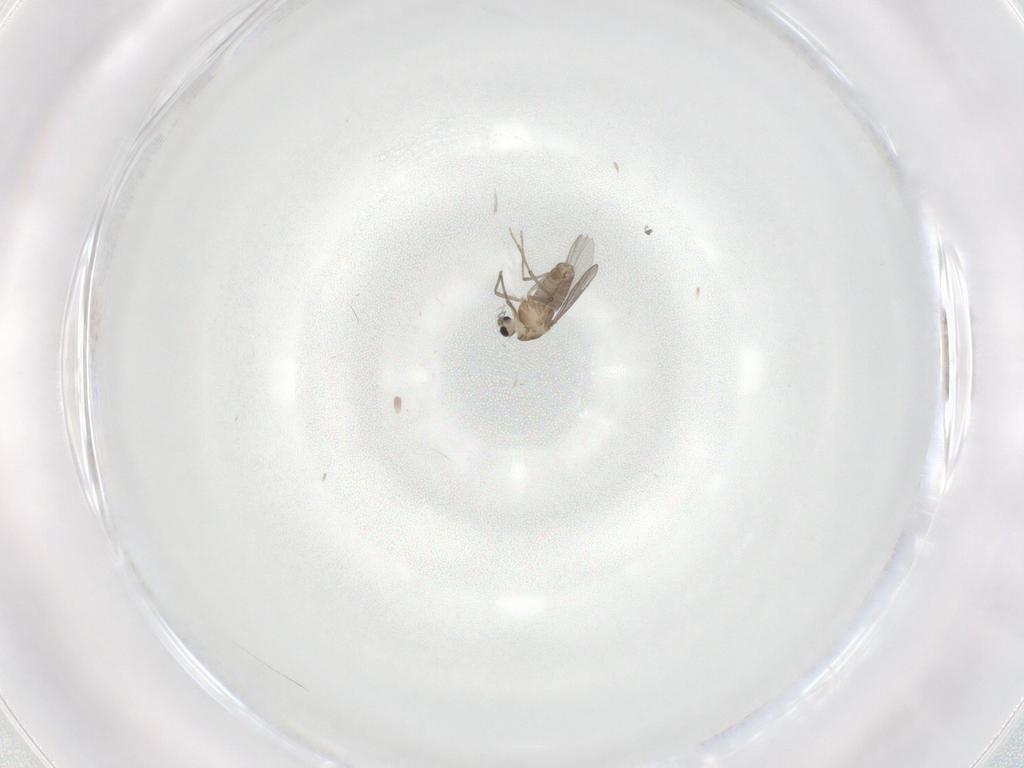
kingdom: Animalia
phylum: Arthropoda
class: Insecta
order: Diptera
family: Chironomidae
